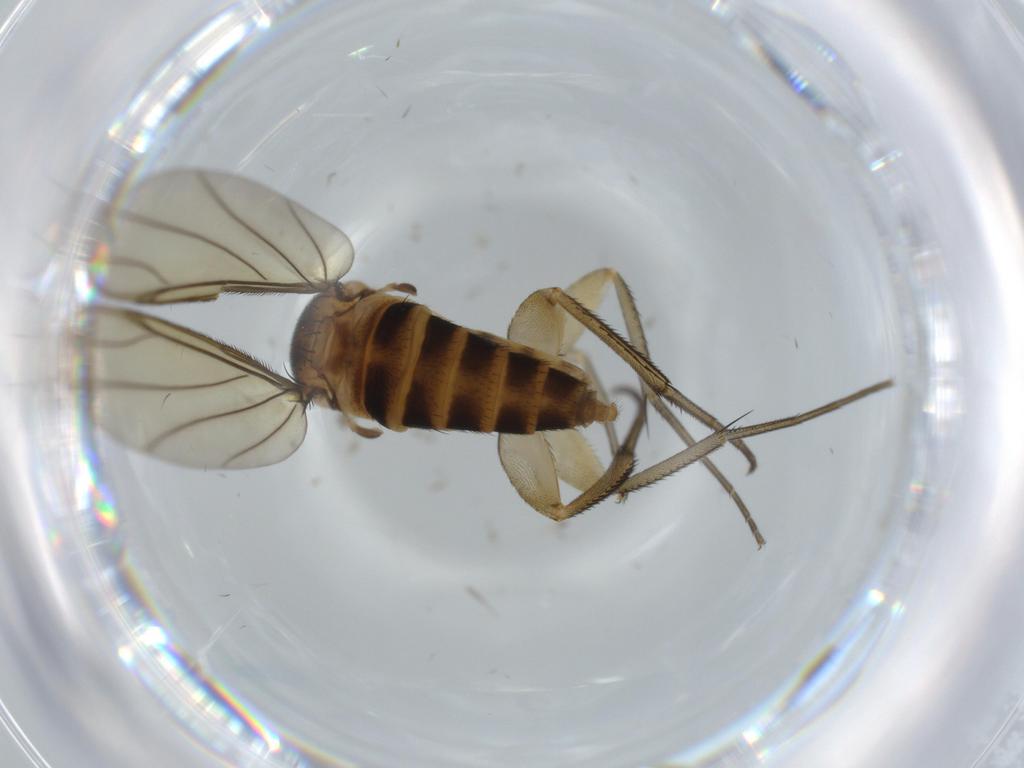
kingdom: Animalia
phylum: Arthropoda
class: Insecta
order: Diptera
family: Milichiidae
